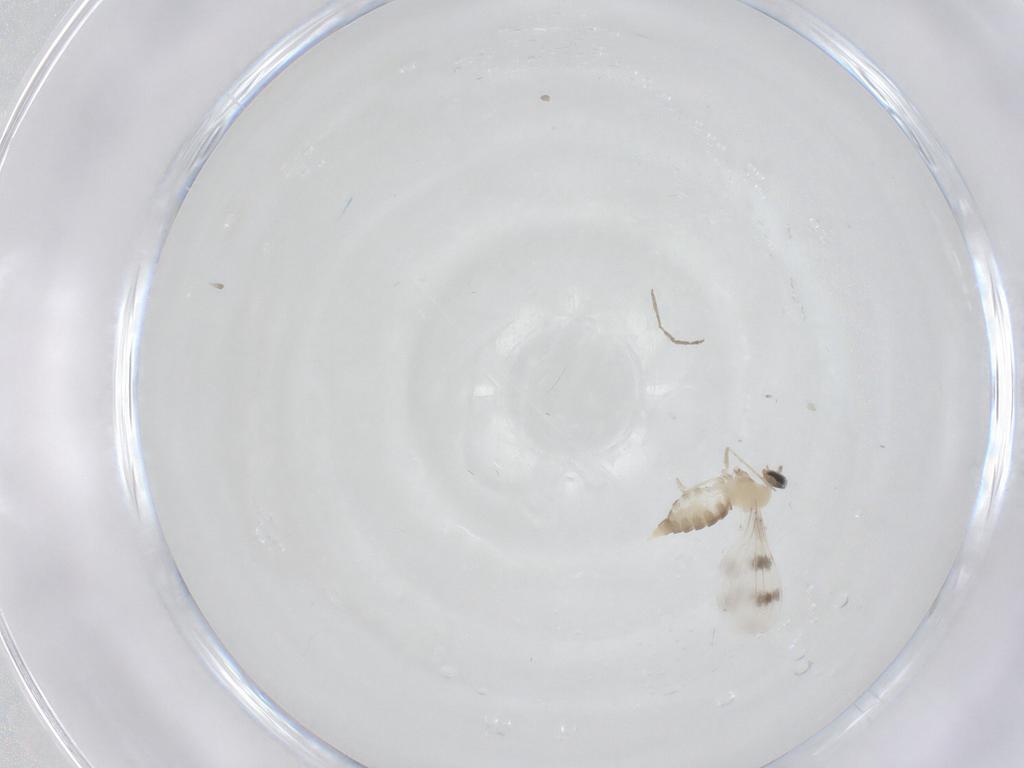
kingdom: Animalia
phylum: Arthropoda
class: Insecta
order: Diptera
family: Cecidomyiidae
